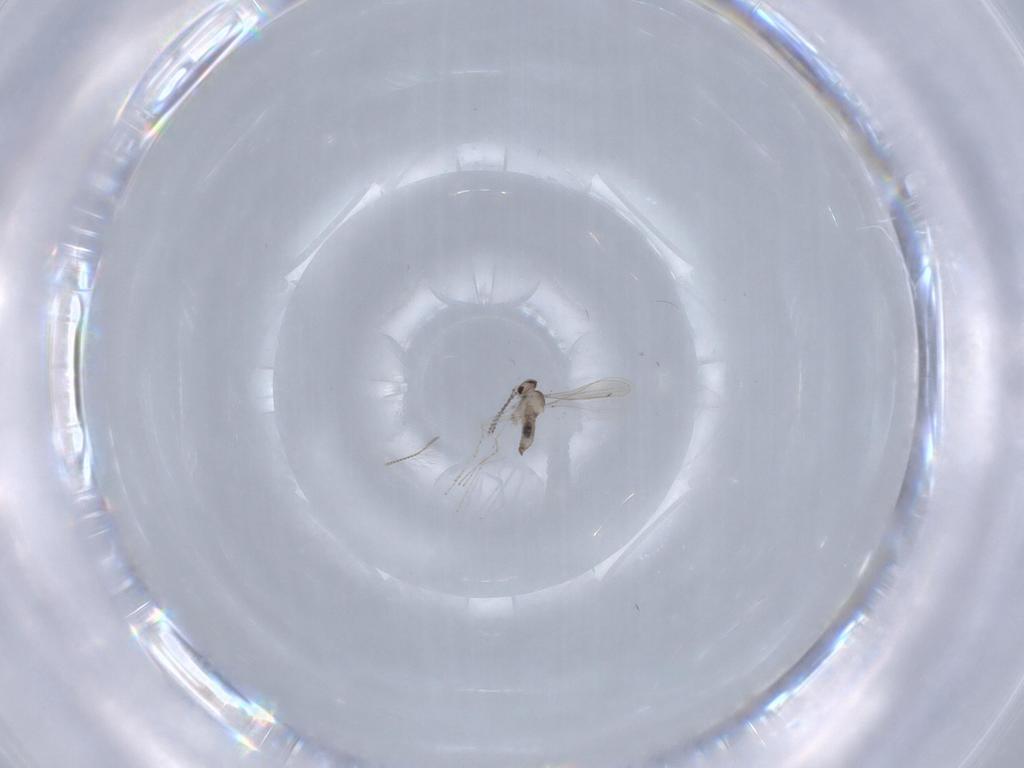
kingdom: Animalia
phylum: Arthropoda
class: Insecta
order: Diptera
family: Cecidomyiidae
